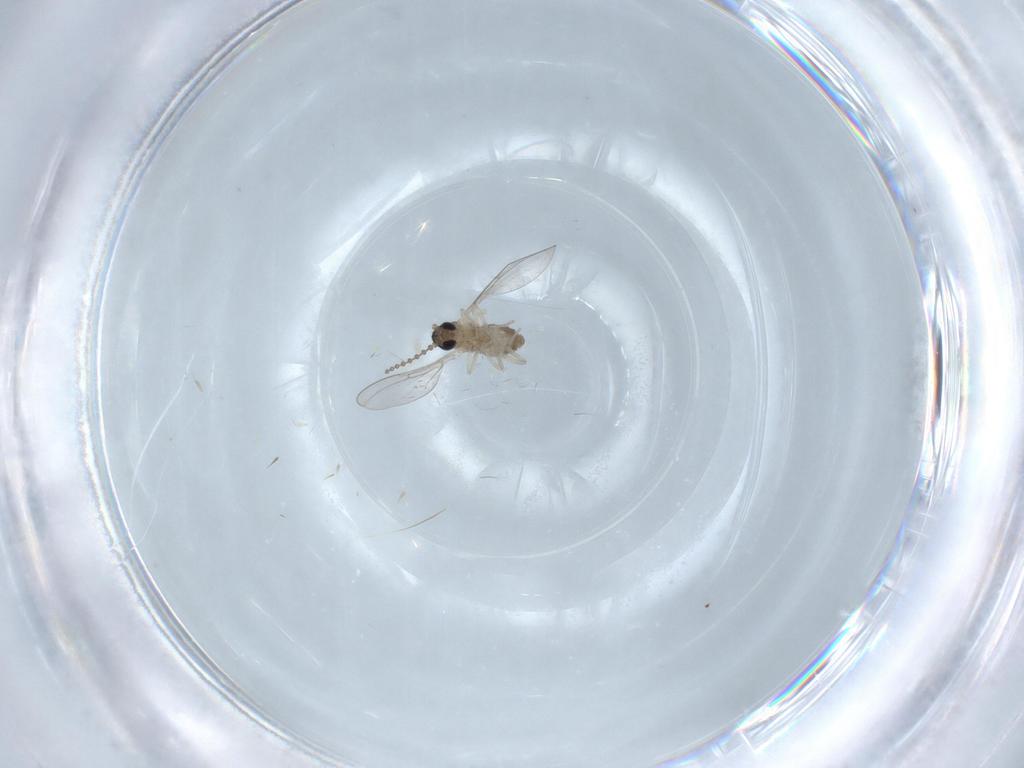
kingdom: Animalia
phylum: Arthropoda
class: Insecta
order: Diptera
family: Cecidomyiidae
